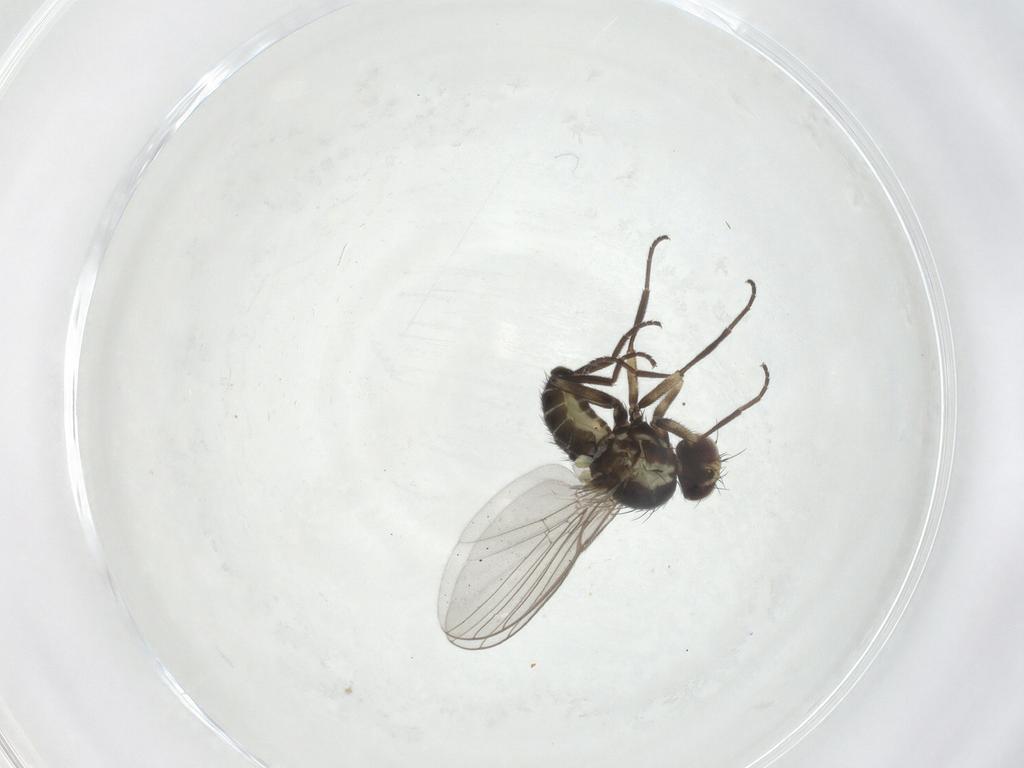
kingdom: Animalia
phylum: Arthropoda
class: Insecta
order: Diptera
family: Agromyzidae
